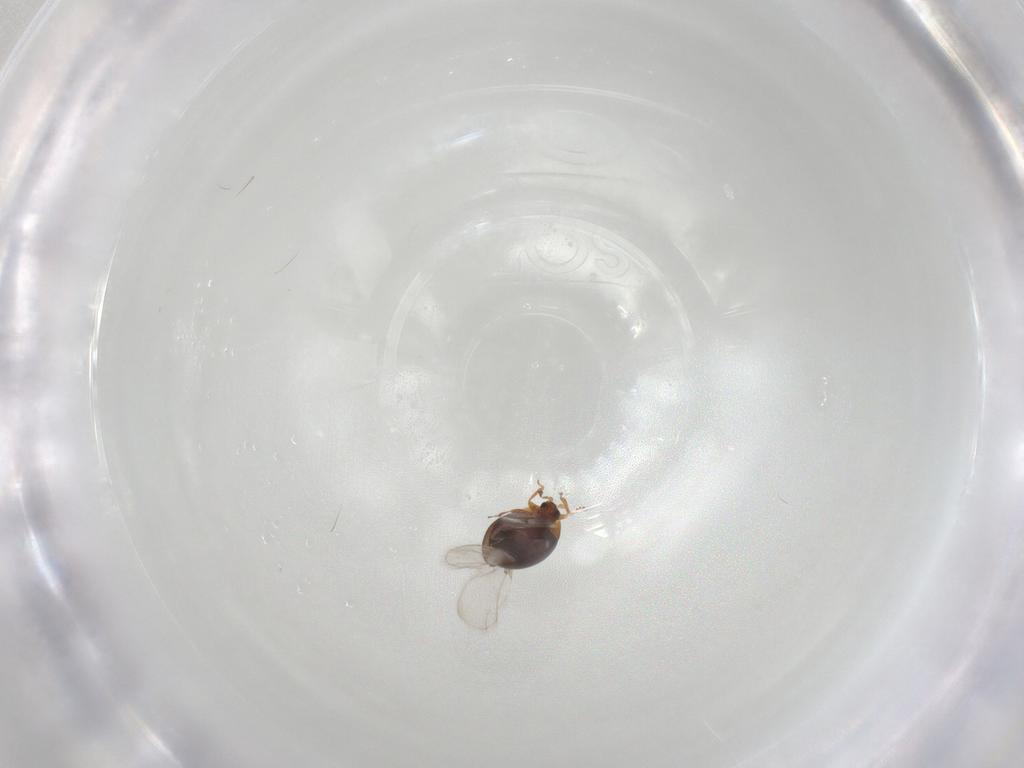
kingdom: Animalia
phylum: Arthropoda
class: Insecta
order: Coleoptera
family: Corylophidae
